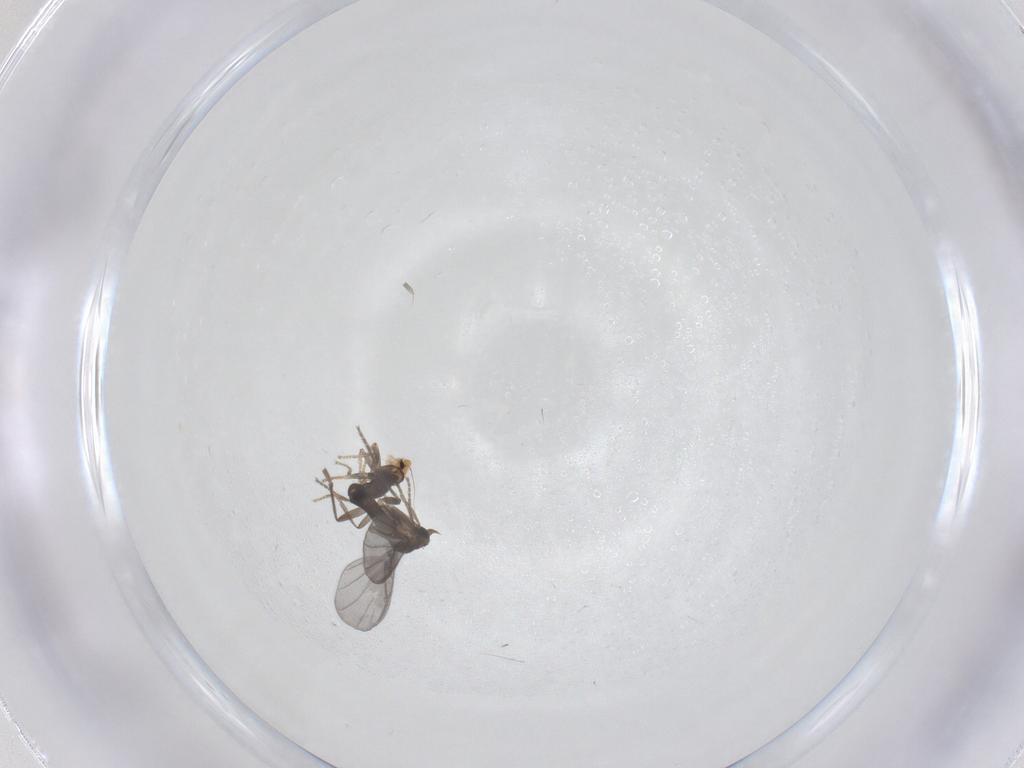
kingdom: Animalia
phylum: Arthropoda
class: Insecta
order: Diptera
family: Phoridae
